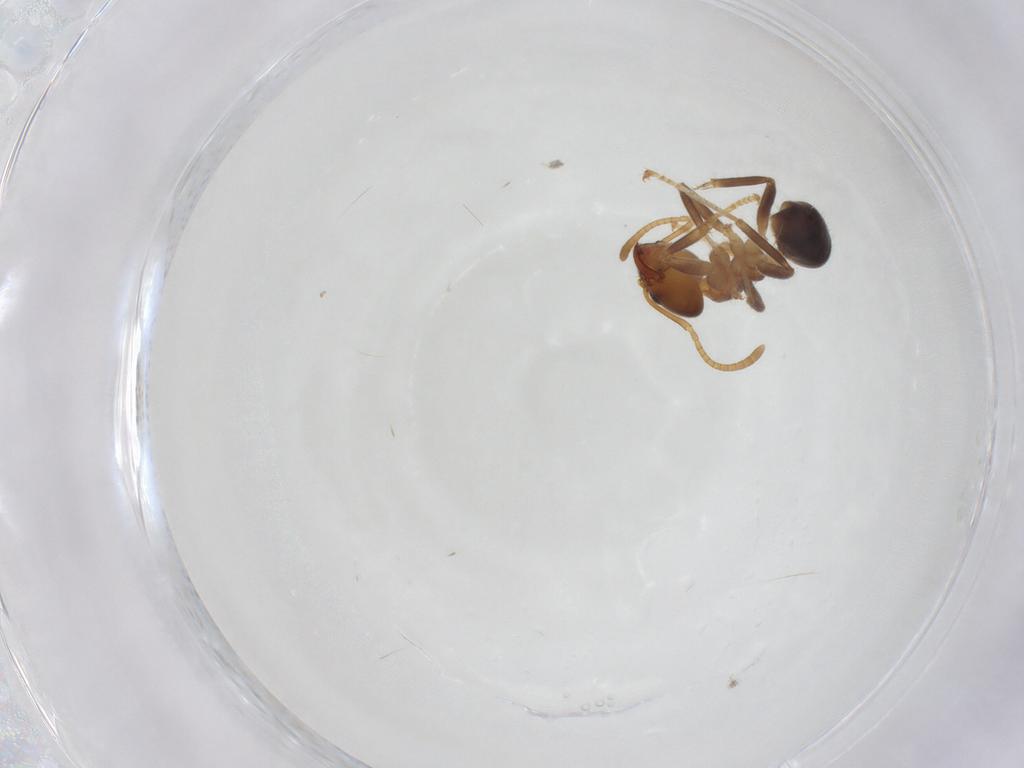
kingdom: Animalia
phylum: Arthropoda
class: Insecta
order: Hymenoptera
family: Formicidae
